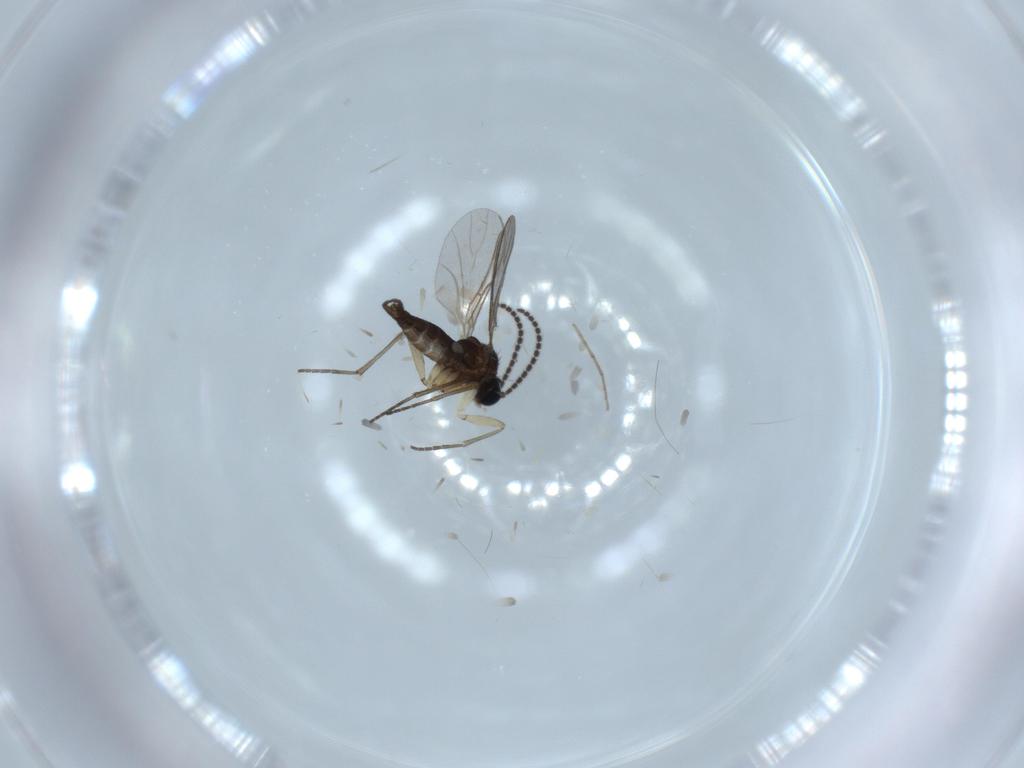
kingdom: Animalia
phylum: Arthropoda
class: Insecta
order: Diptera
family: Sciaridae
